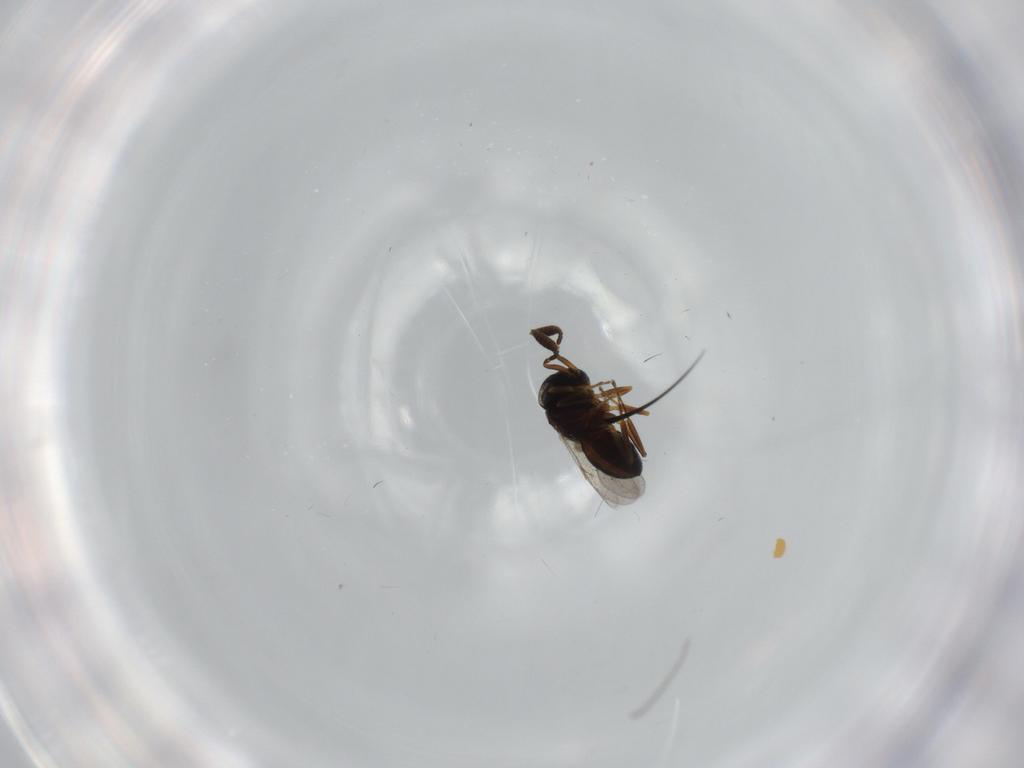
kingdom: Animalia
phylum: Arthropoda
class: Insecta
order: Hymenoptera
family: Scelionidae
